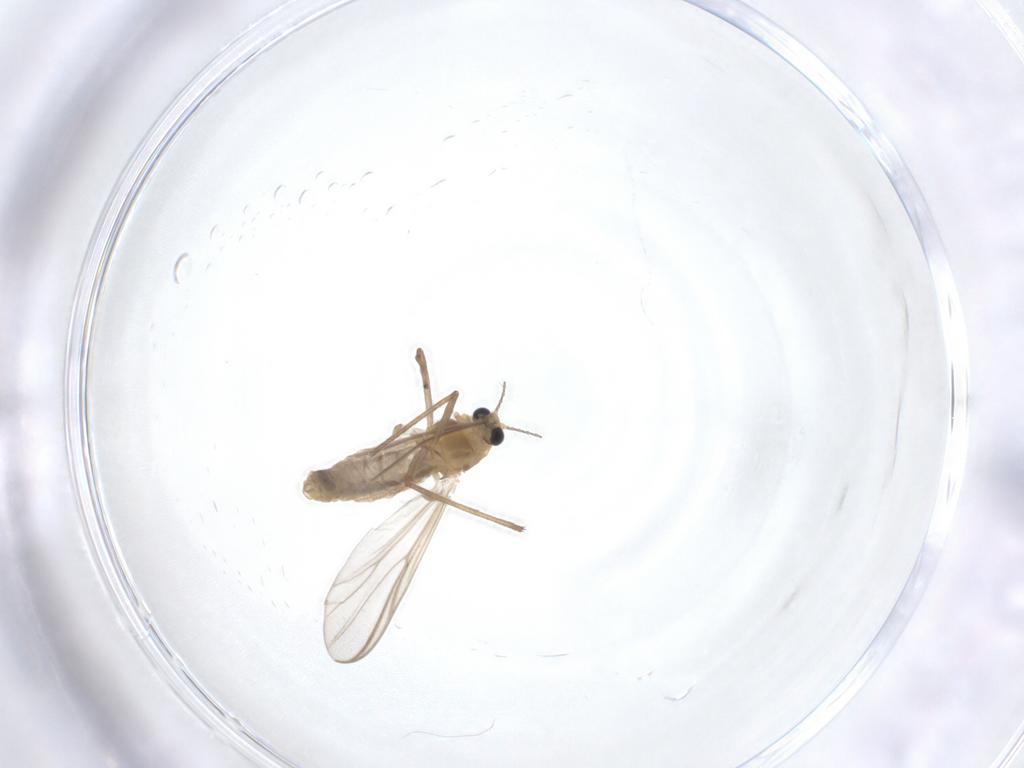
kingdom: Animalia
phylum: Arthropoda
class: Insecta
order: Diptera
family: Chironomidae
